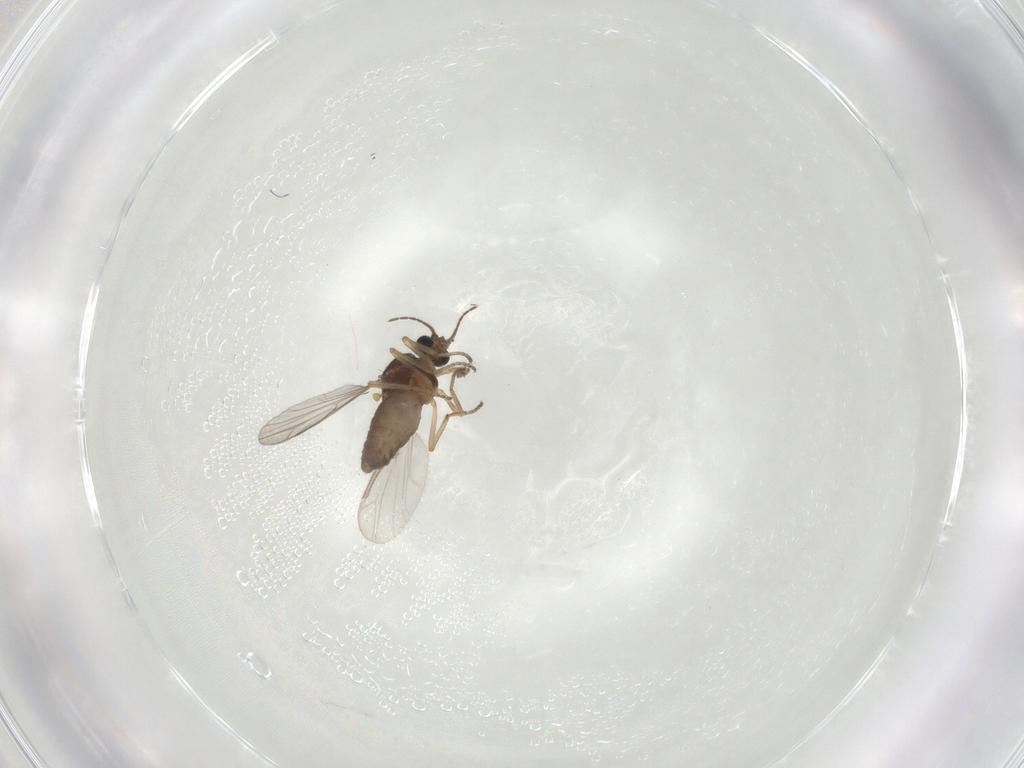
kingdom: Animalia
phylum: Arthropoda
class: Insecta
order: Diptera
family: Cecidomyiidae
